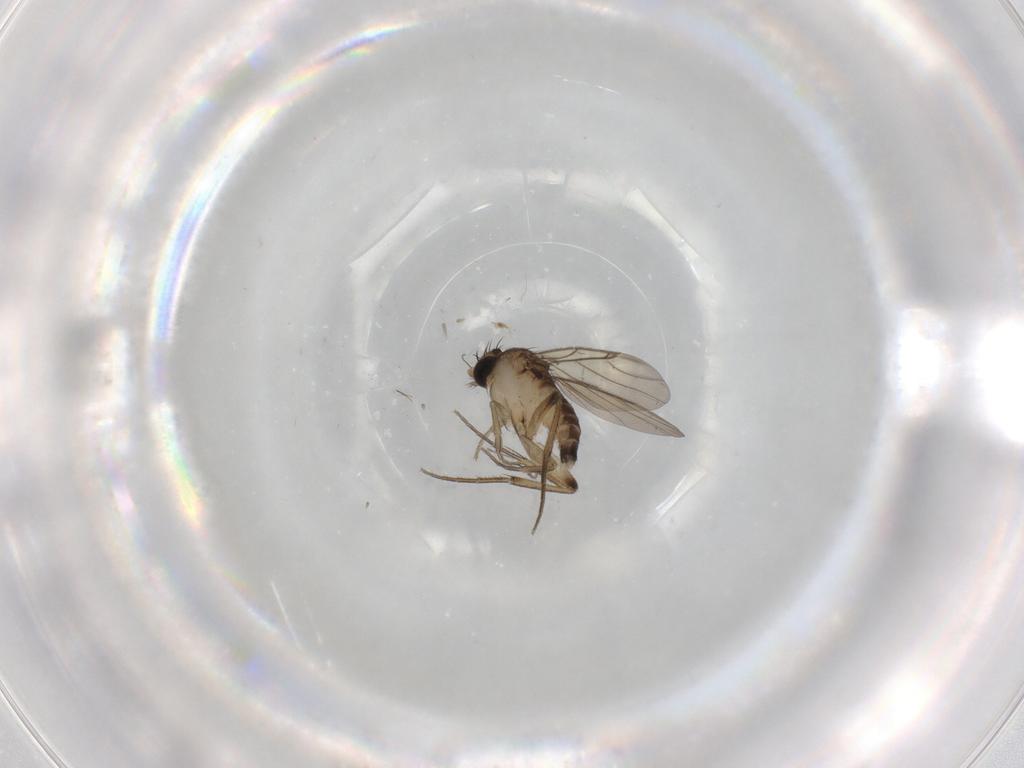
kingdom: Animalia
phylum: Arthropoda
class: Insecta
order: Diptera
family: Phoridae
